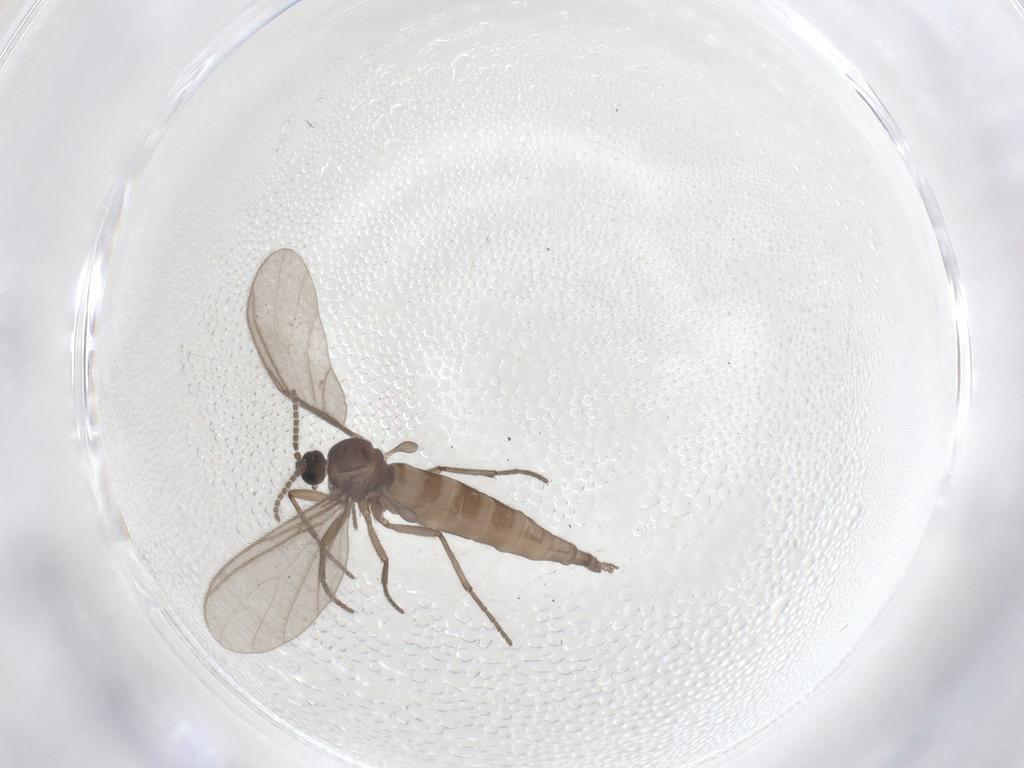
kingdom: Animalia
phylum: Arthropoda
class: Insecta
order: Diptera
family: Sciaridae
